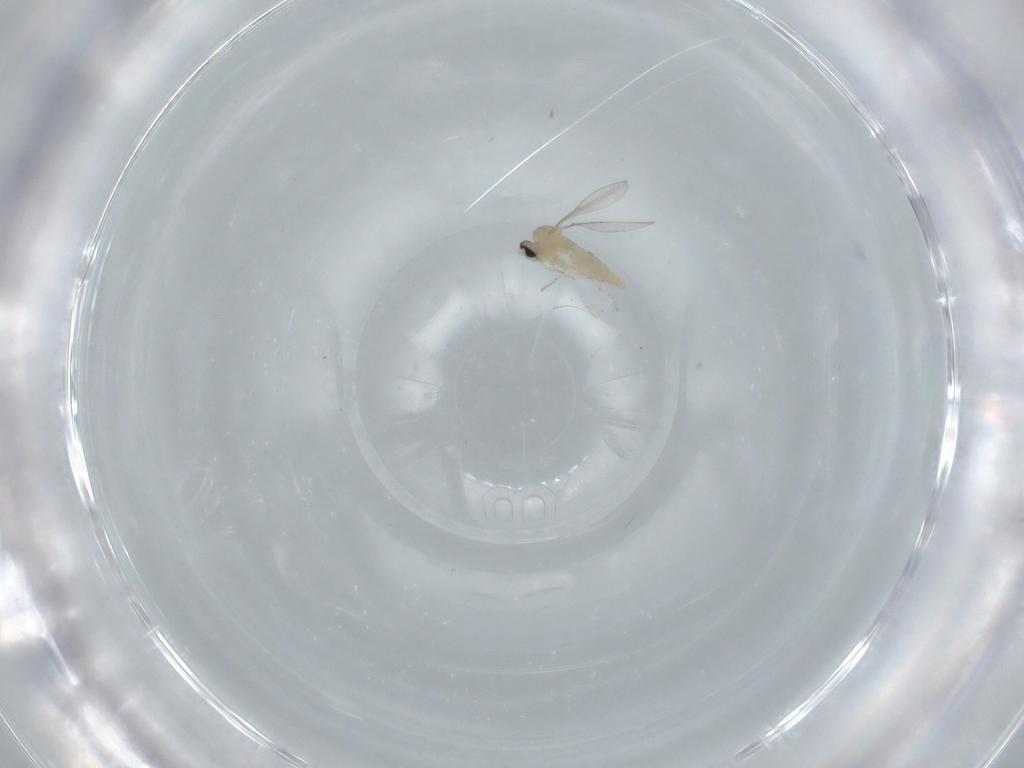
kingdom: Animalia
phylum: Arthropoda
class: Insecta
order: Diptera
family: Cecidomyiidae
